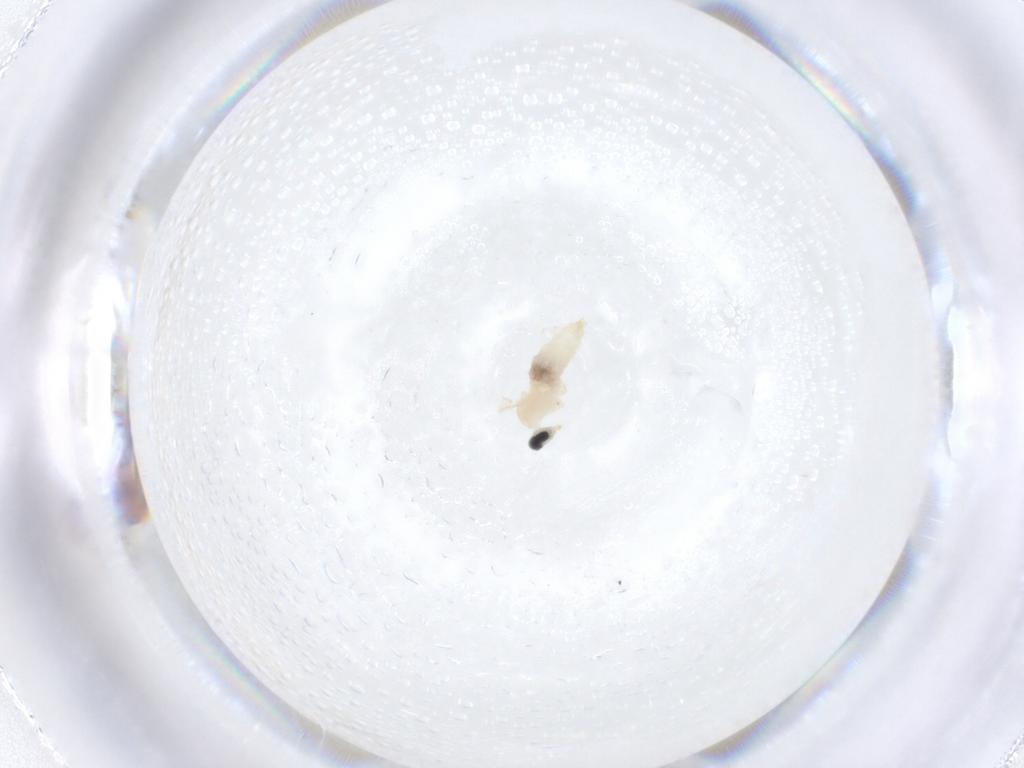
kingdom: Animalia
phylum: Arthropoda
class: Insecta
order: Diptera
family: Cecidomyiidae
